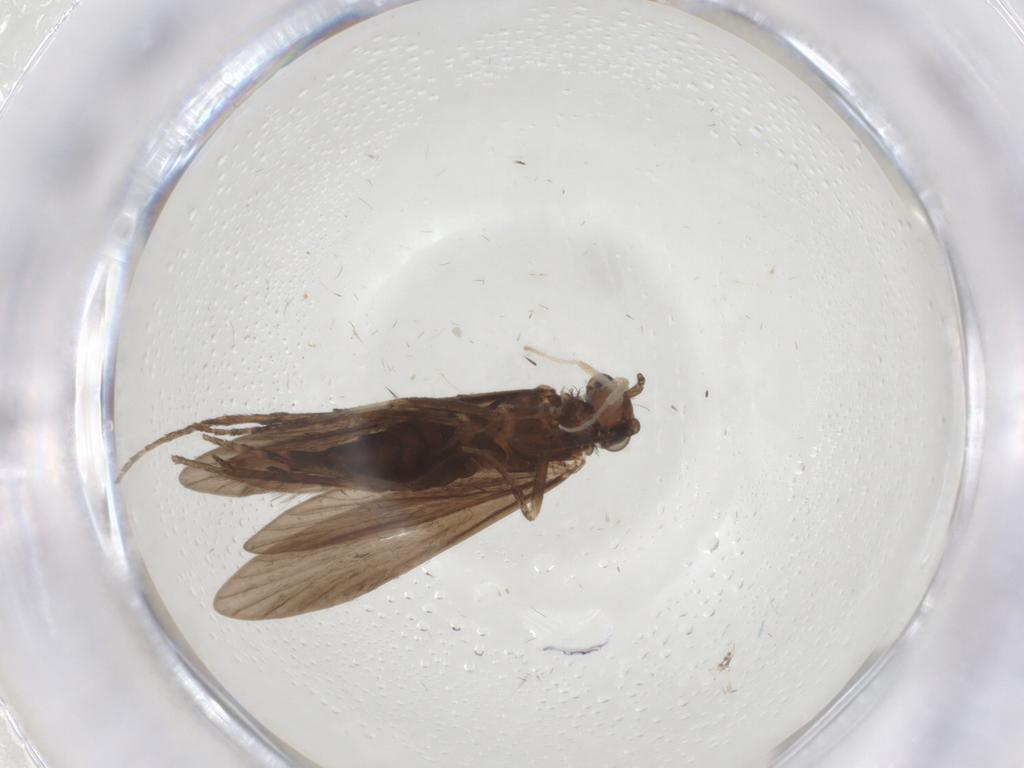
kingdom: Animalia
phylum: Arthropoda
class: Insecta
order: Trichoptera
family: Xiphocentronidae
